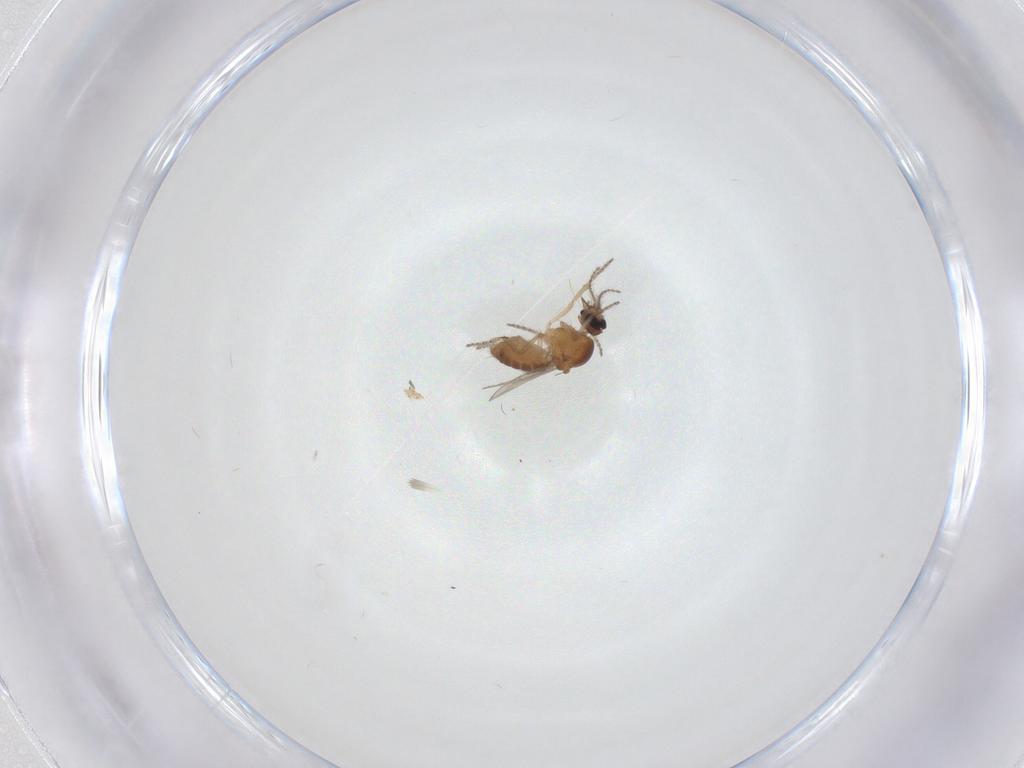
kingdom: Animalia
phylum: Arthropoda
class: Insecta
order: Diptera
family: Ceratopogonidae
